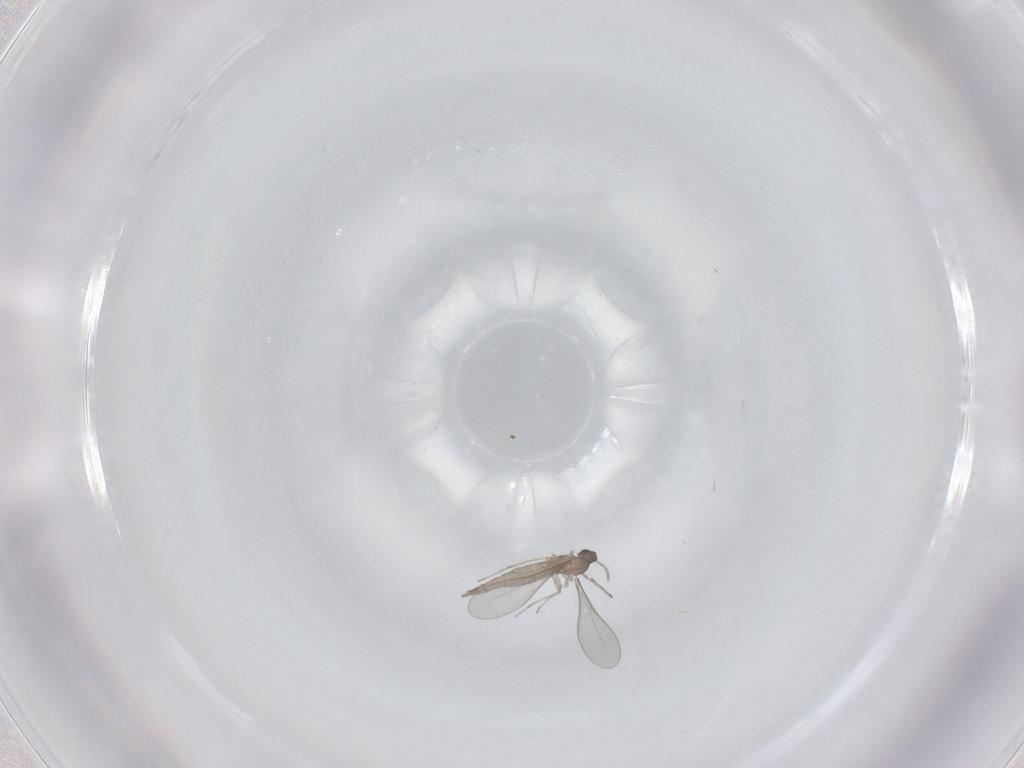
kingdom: Animalia
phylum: Arthropoda
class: Insecta
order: Diptera
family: Cecidomyiidae
